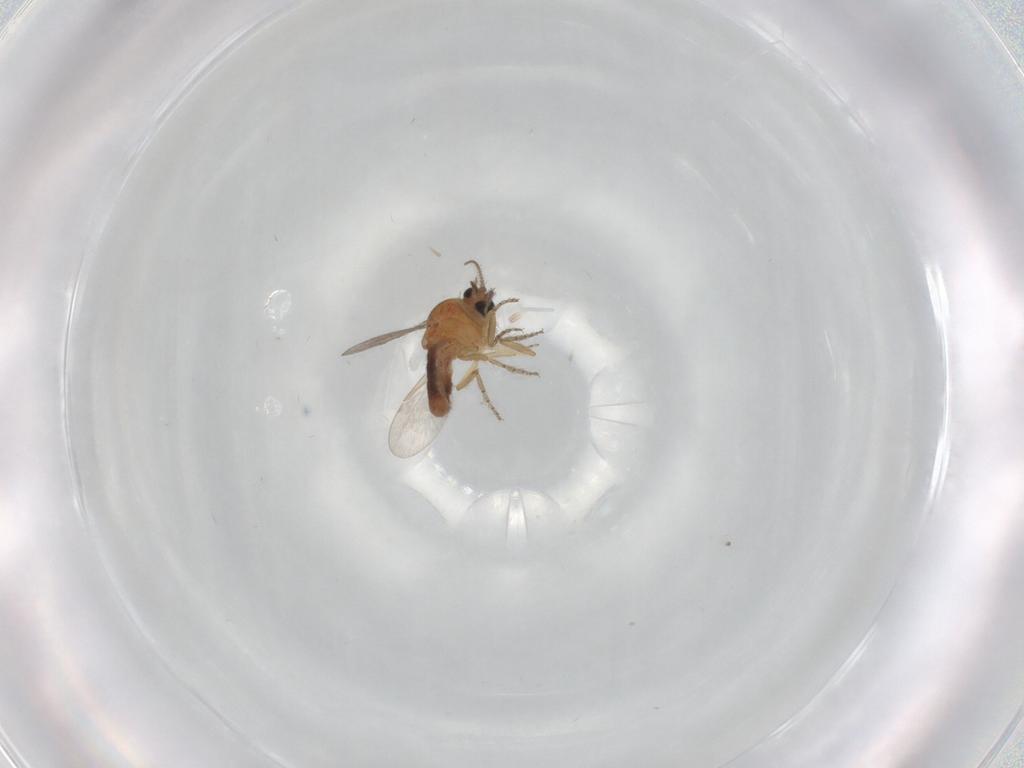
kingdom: Animalia
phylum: Arthropoda
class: Insecta
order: Diptera
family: Ceratopogonidae
